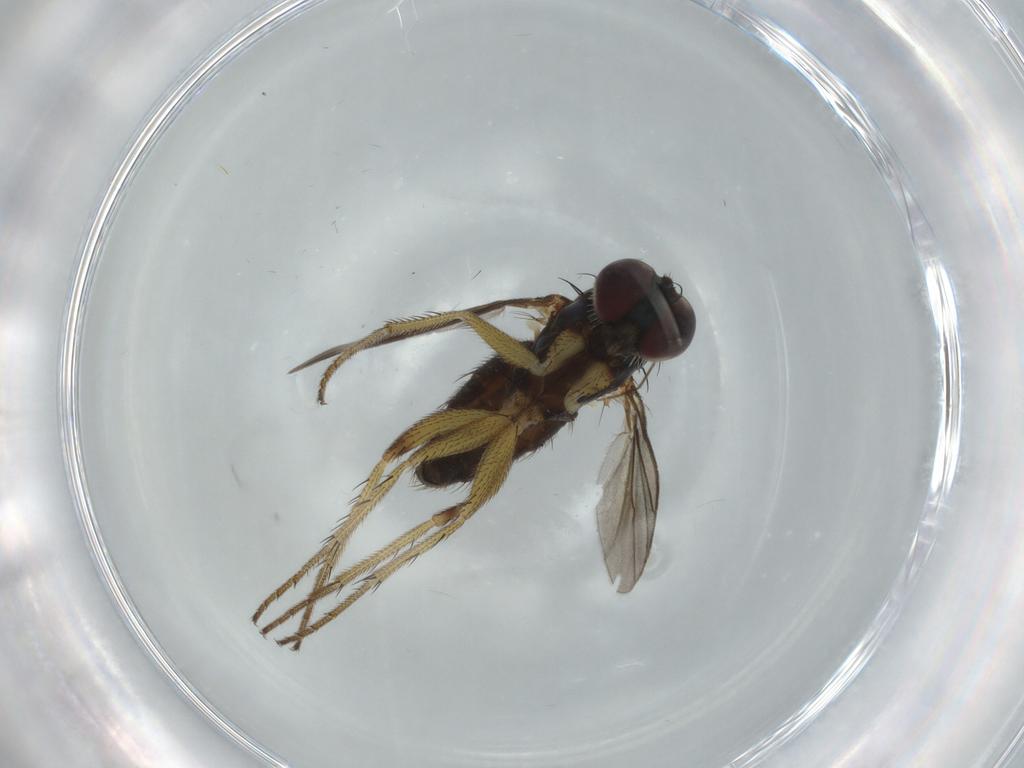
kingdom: Animalia
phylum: Arthropoda
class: Insecta
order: Diptera
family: Dolichopodidae
